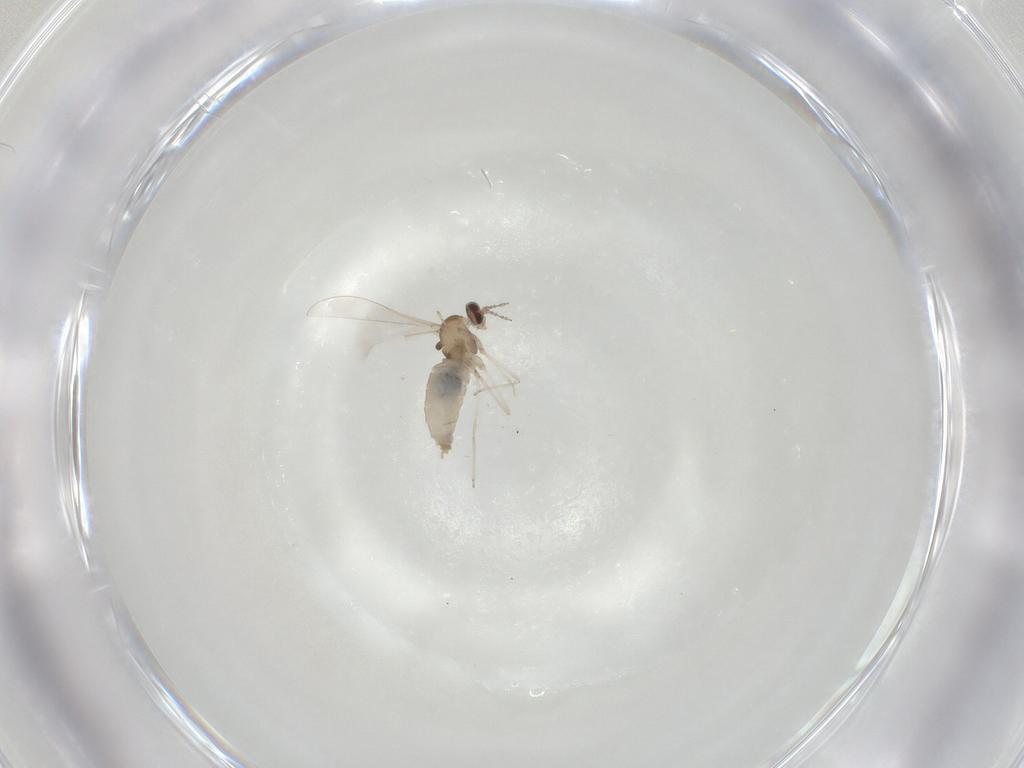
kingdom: Animalia
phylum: Arthropoda
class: Insecta
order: Diptera
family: Cecidomyiidae
